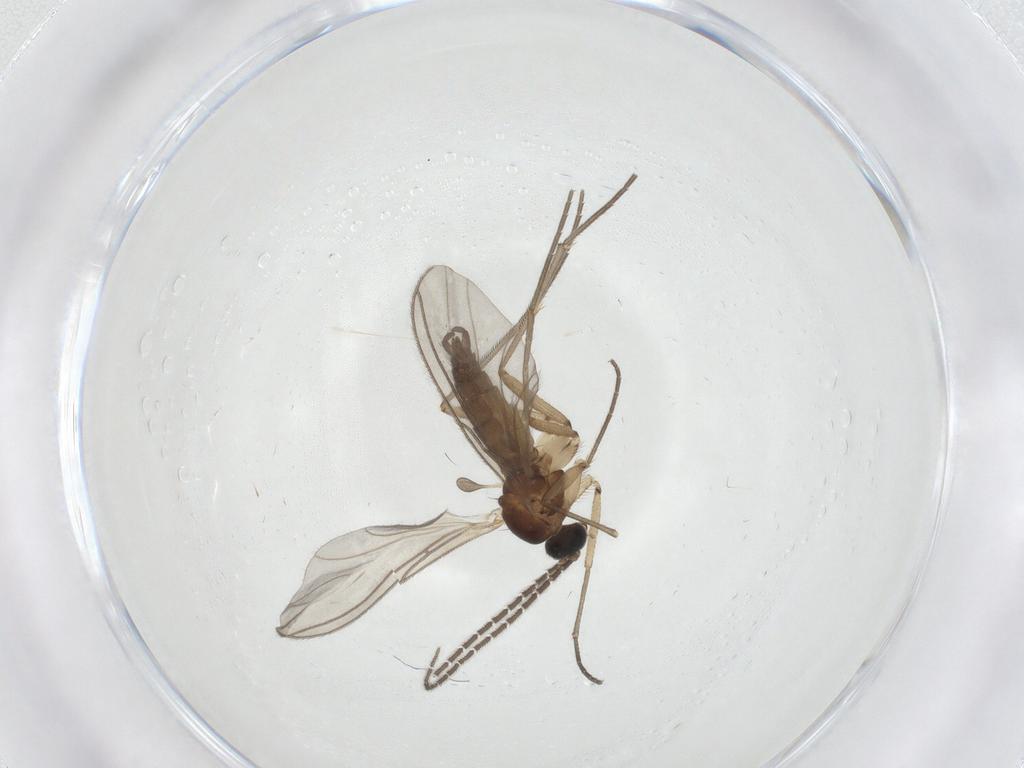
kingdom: Animalia
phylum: Arthropoda
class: Insecta
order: Diptera
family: Sciaridae
